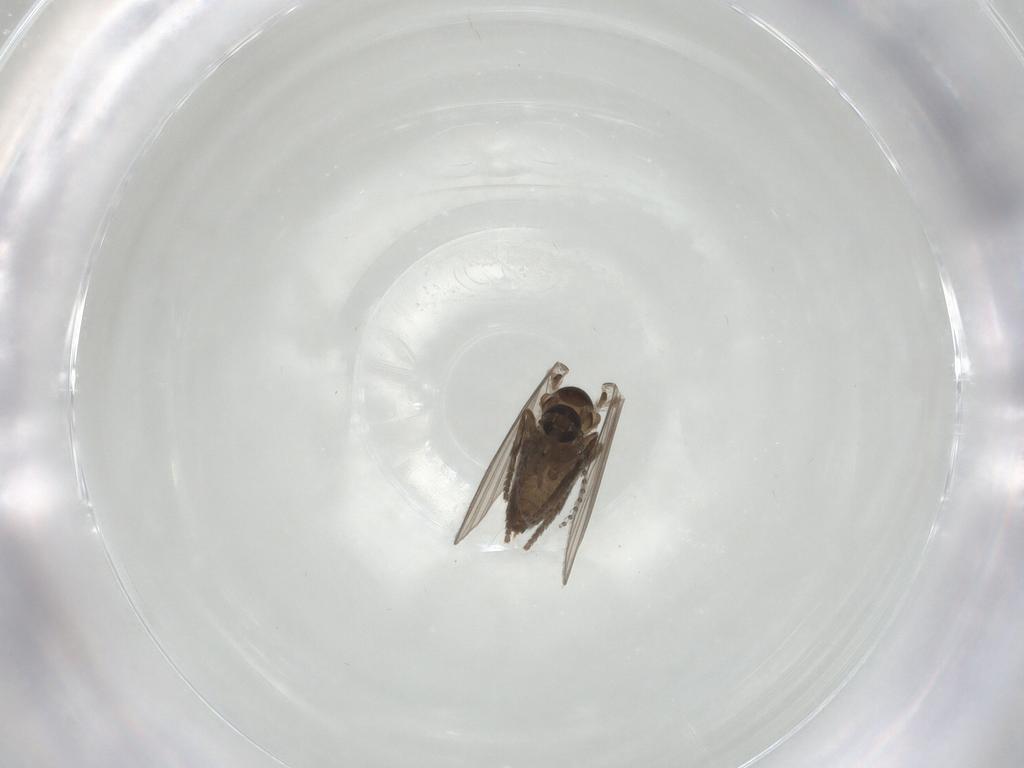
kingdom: Animalia
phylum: Arthropoda
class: Insecta
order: Diptera
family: Psychodidae
